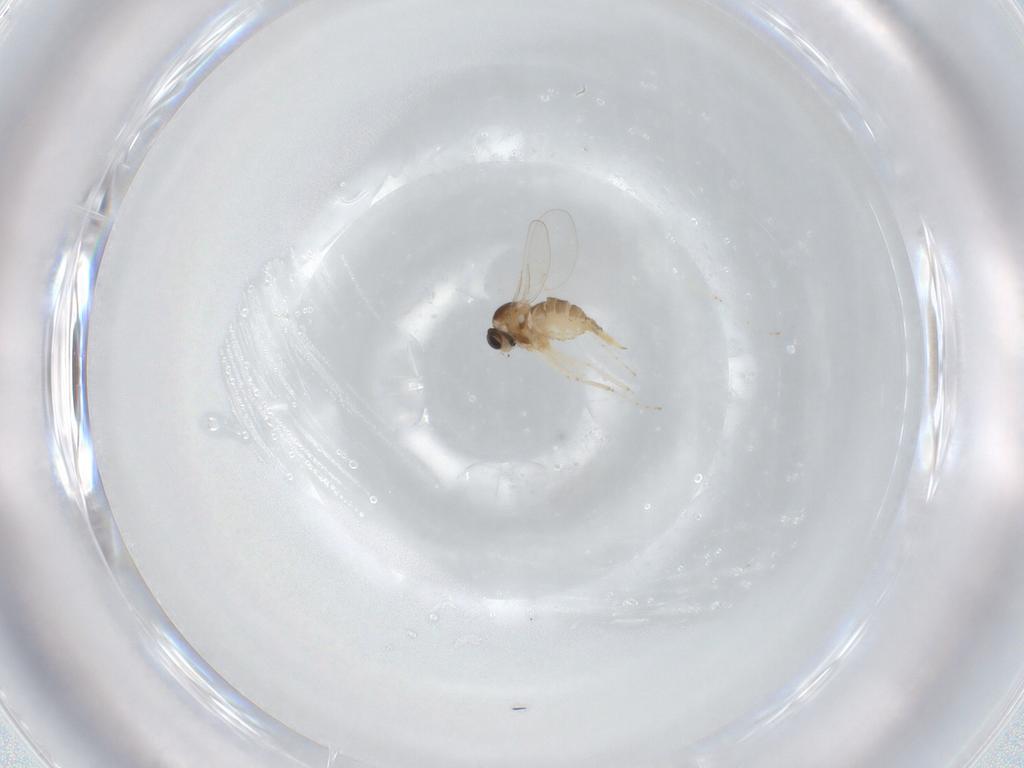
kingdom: Animalia
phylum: Arthropoda
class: Insecta
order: Diptera
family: Cecidomyiidae
